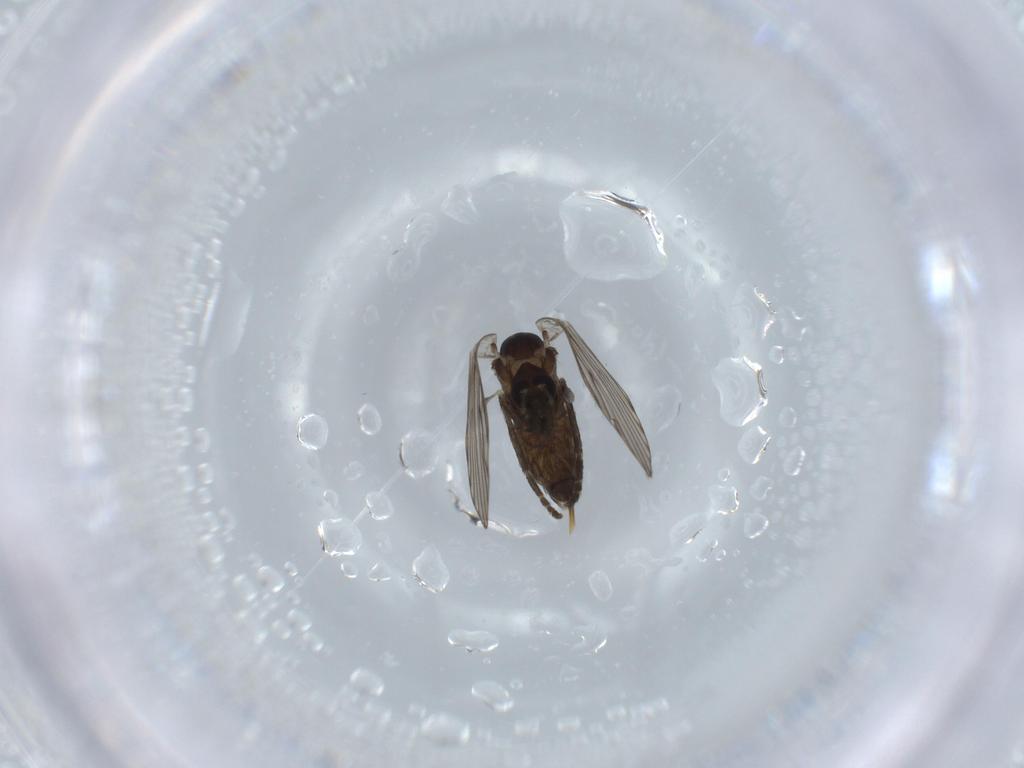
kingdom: Animalia
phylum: Arthropoda
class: Insecta
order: Diptera
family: Psychodidae
